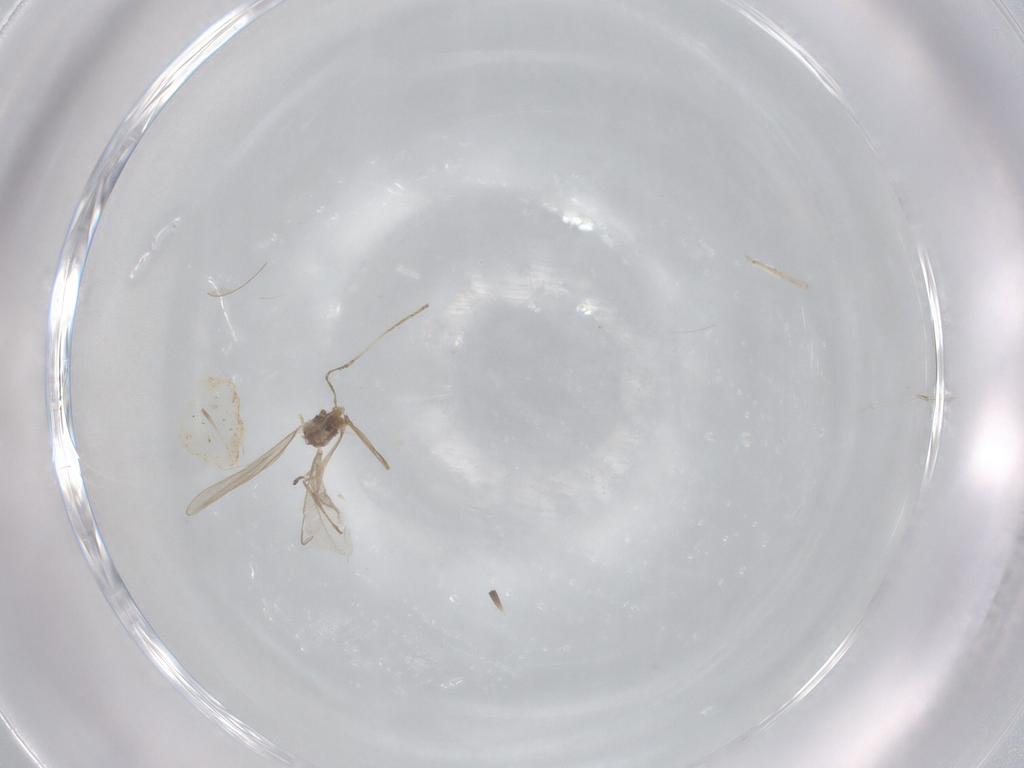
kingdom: Animalia
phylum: Arthropoda
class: Insecta
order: Diptera
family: Cecidomyiidae
